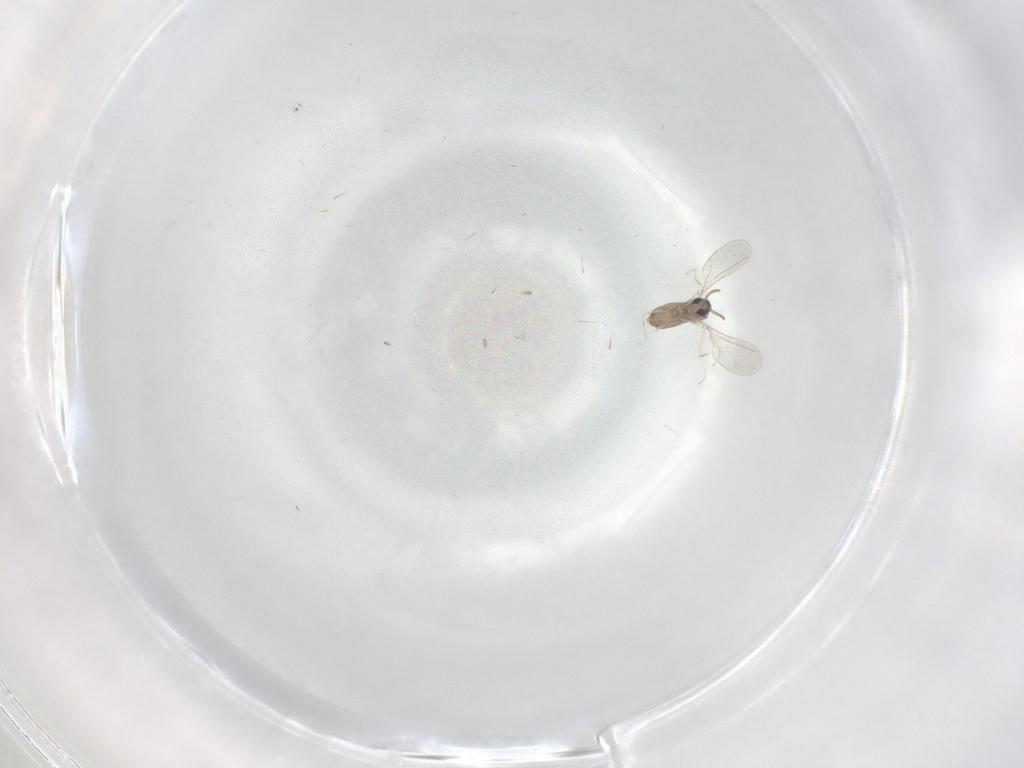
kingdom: Animalia
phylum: Arthropoda
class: Insecta
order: Diptera
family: Cecidomyiidae
